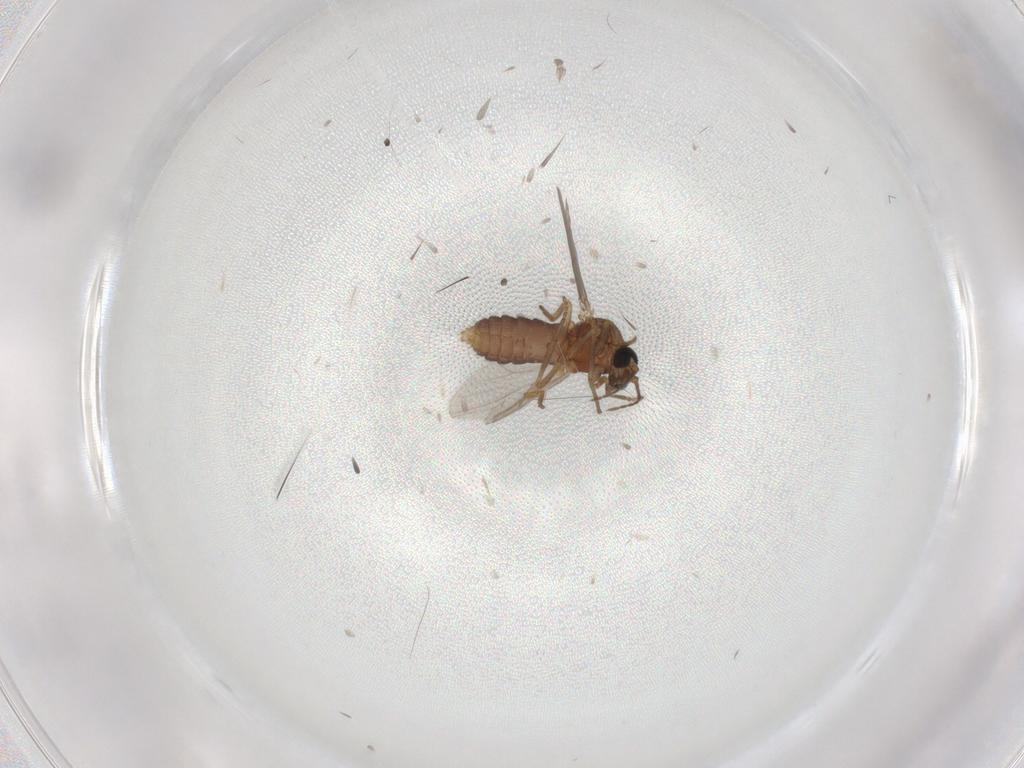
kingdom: Animalia
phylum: Arthropoda
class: Insecta
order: Diptera
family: Ceratopogonidae
